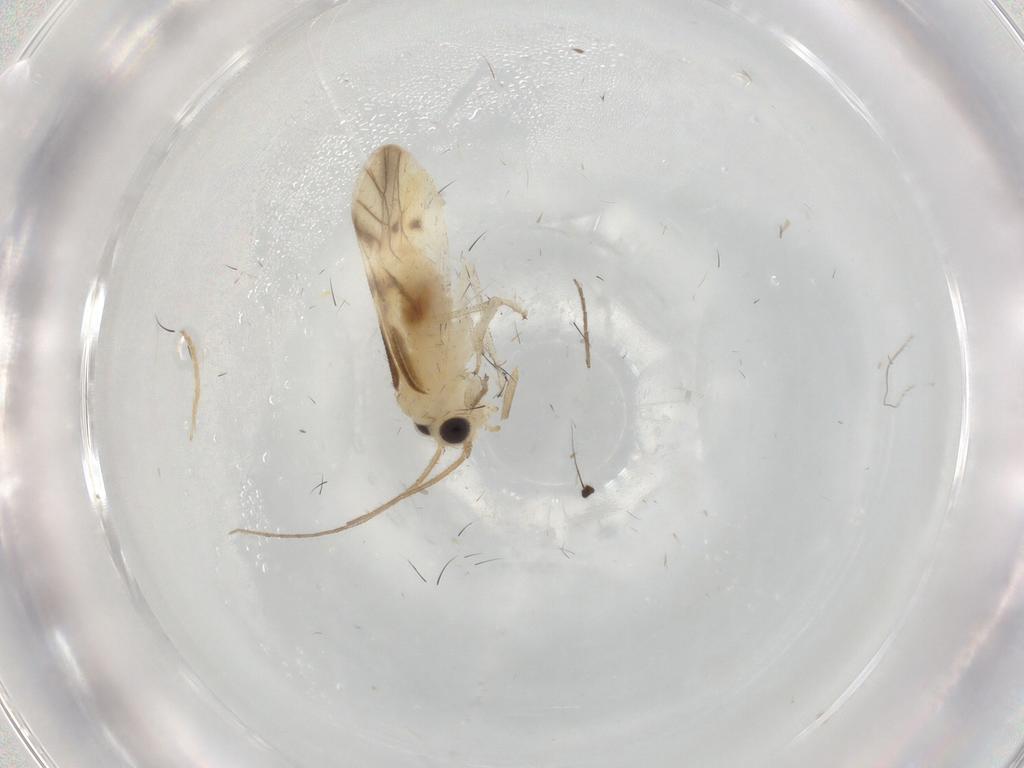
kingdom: Animalia
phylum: Arthropoda
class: Insecta
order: Psocodea
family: Caeciliusidae
